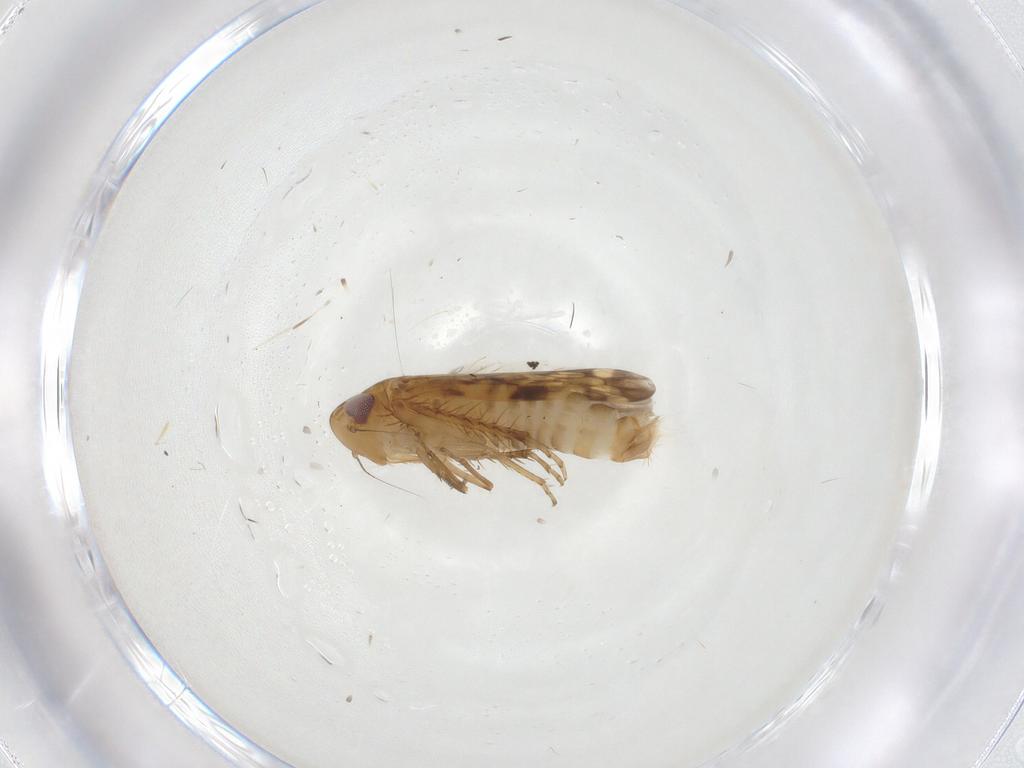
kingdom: Animalia
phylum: Arthropoda
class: Insecta
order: Hemiptera
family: Cicadellidae
